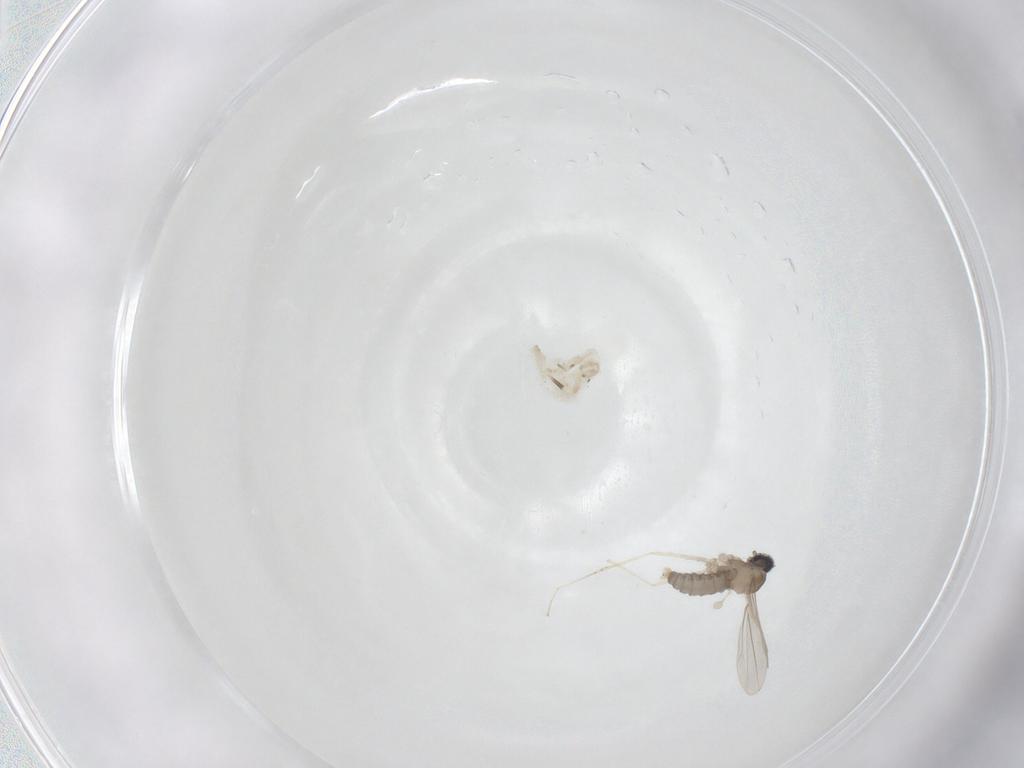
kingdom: Animalia
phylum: Arthropoda
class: Insecta
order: Diptera
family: Cecidomyiidae
